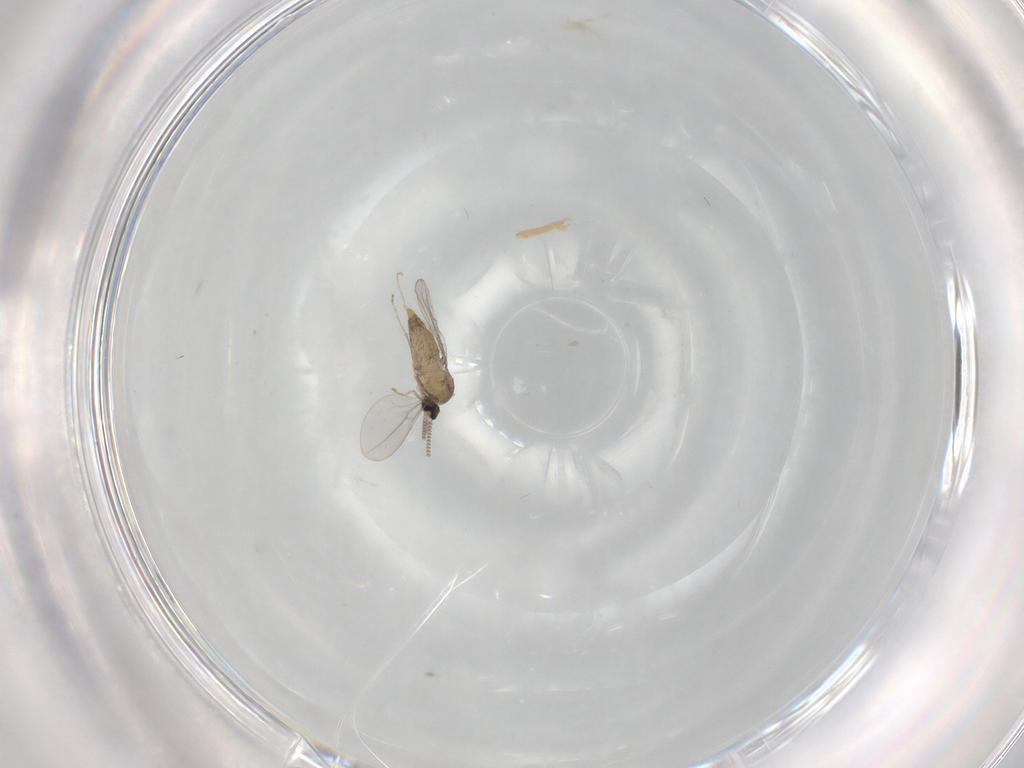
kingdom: Animalia
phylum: Arthropoda
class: Insecta
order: Diptera
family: Cecidomyiidae
